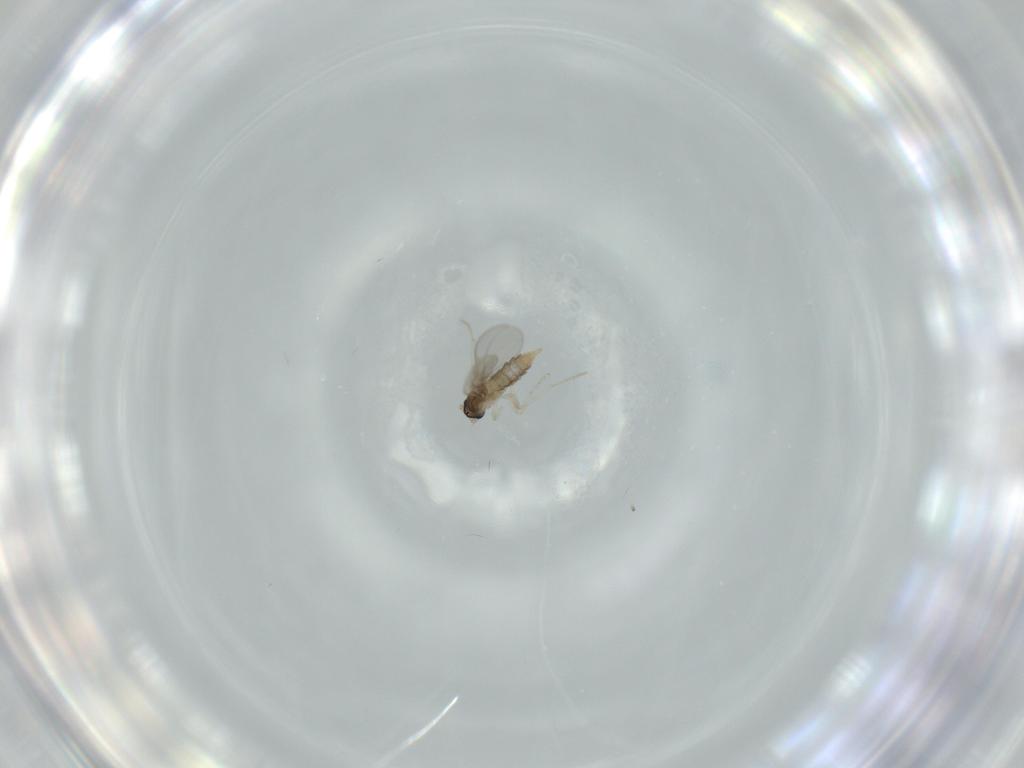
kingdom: Animalia
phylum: Arthropoda
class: Insecta
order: Diptera
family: Cecidomyiidae
